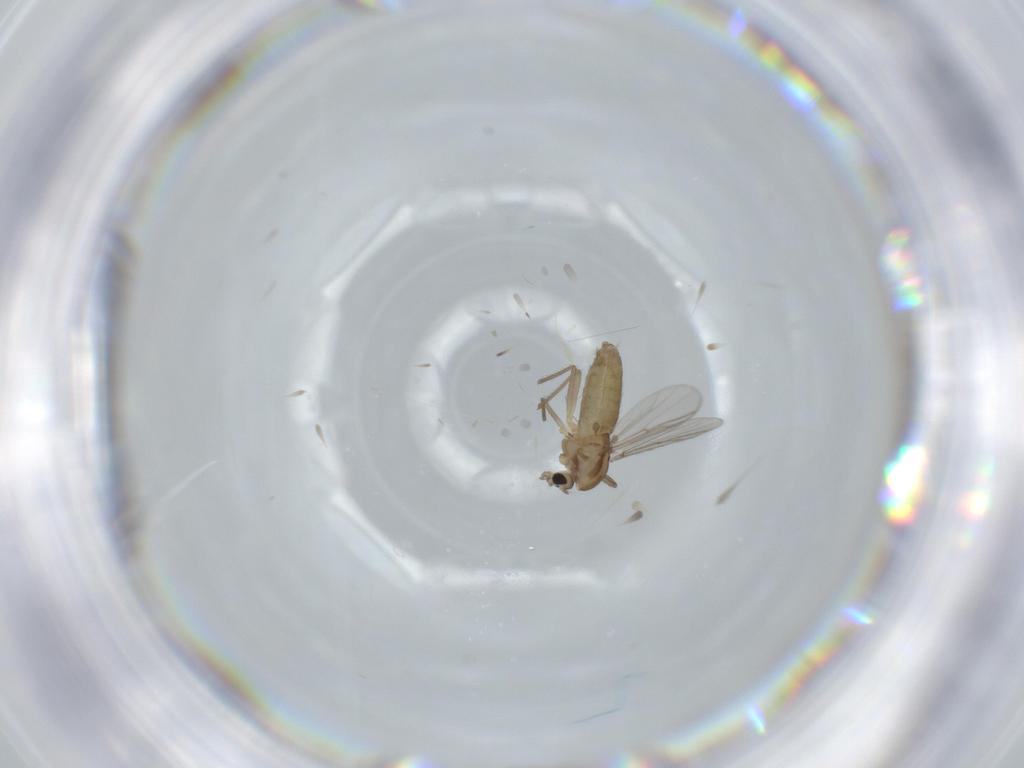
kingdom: Animalia
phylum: Arthropoda
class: Insecta
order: Diptera
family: Chironomidae
